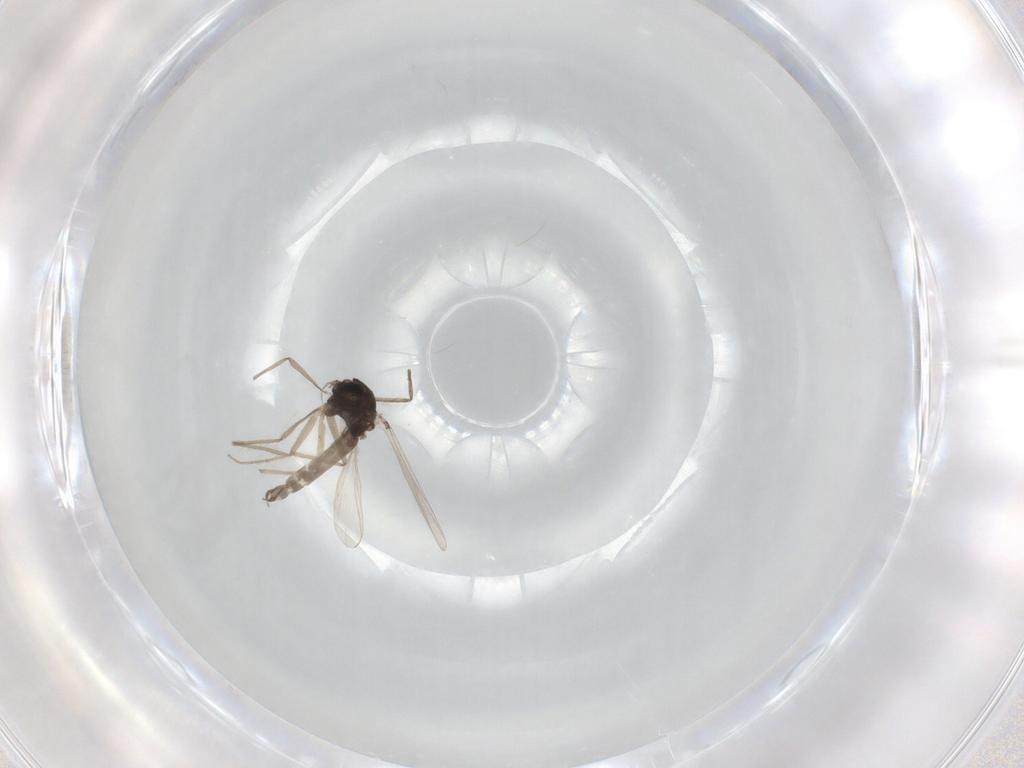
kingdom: Animalia
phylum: Arthropoda
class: Insecta
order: Diptera
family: Chironomidae
